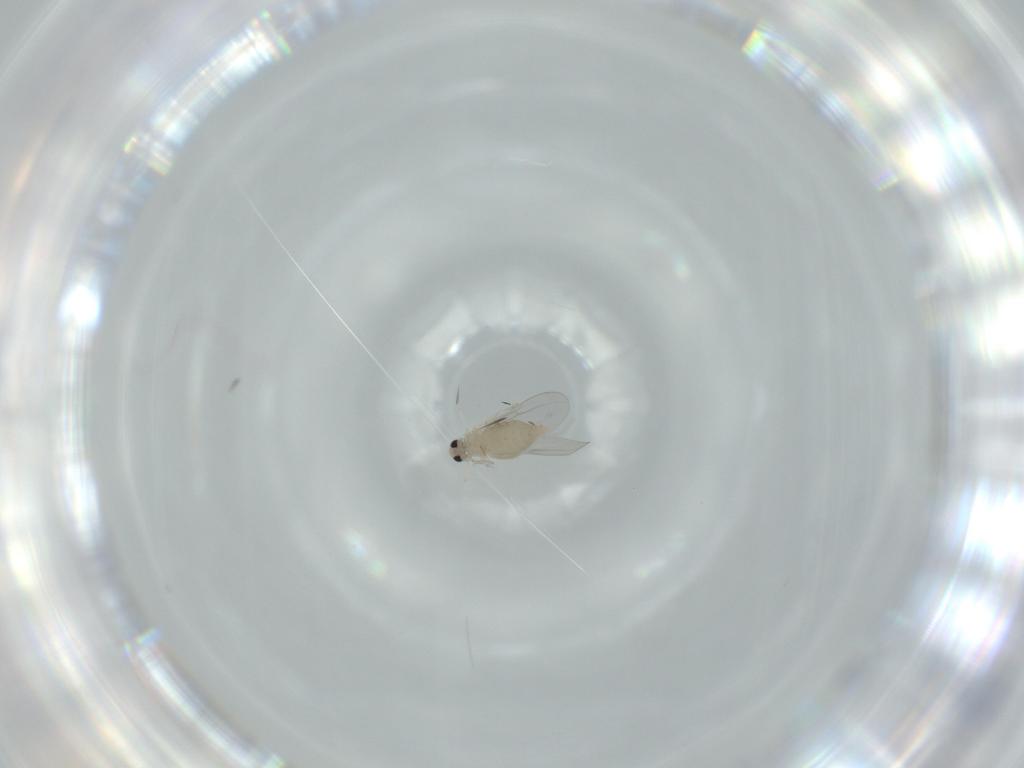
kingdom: Animalia
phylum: Arthropoda
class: Insecta
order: Diptera
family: Cecidomyiidae
